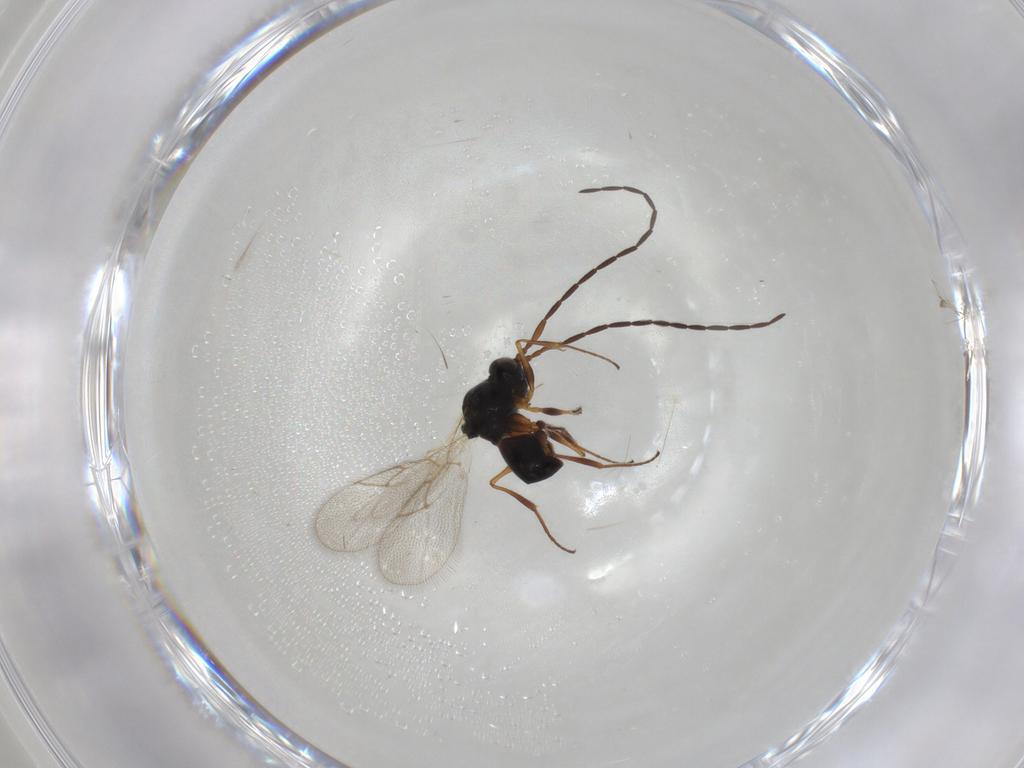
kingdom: Animalia
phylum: Arthropoda
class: Insecta
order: Hymenoptera
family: Figitidae
